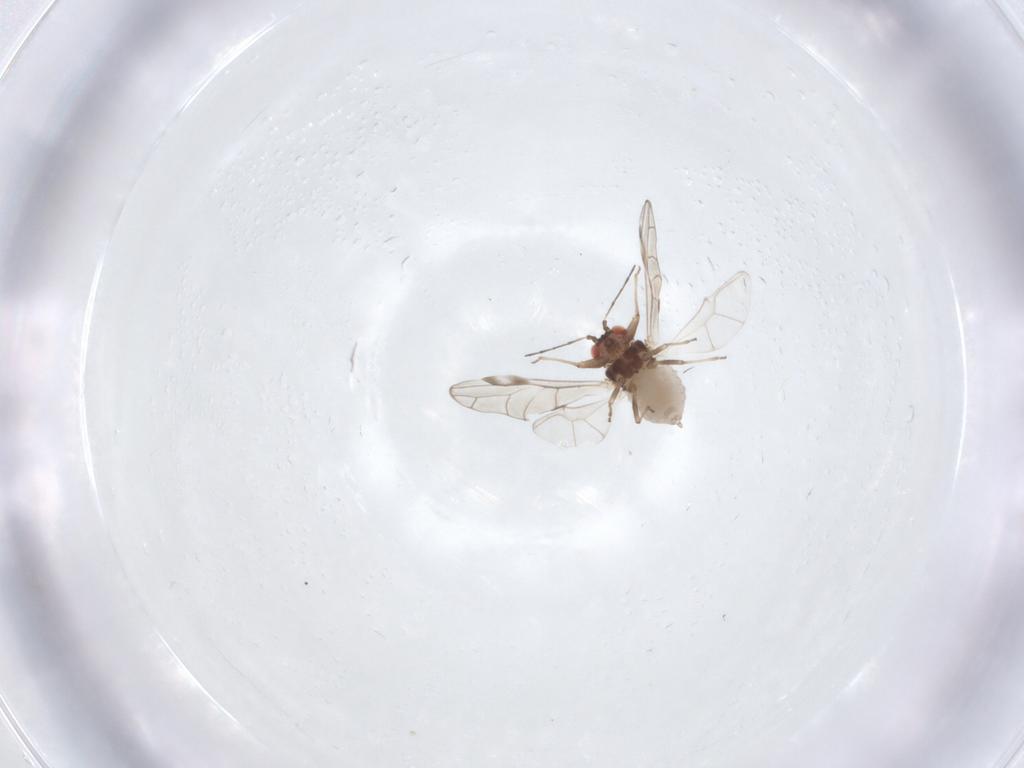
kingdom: Animalia
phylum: Arthropoda
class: Insecta
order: Hemiptera
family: Aphididae
